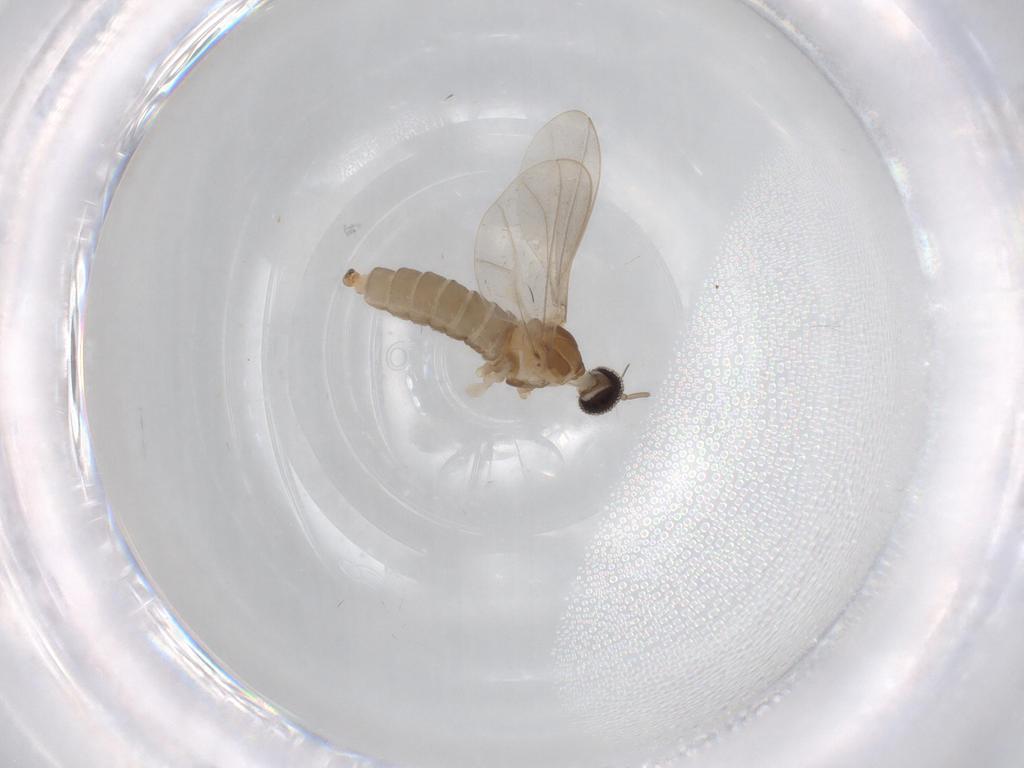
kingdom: Animalia
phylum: Arthropoda
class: Insecta
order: Diptera
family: Cecidomyiidae
